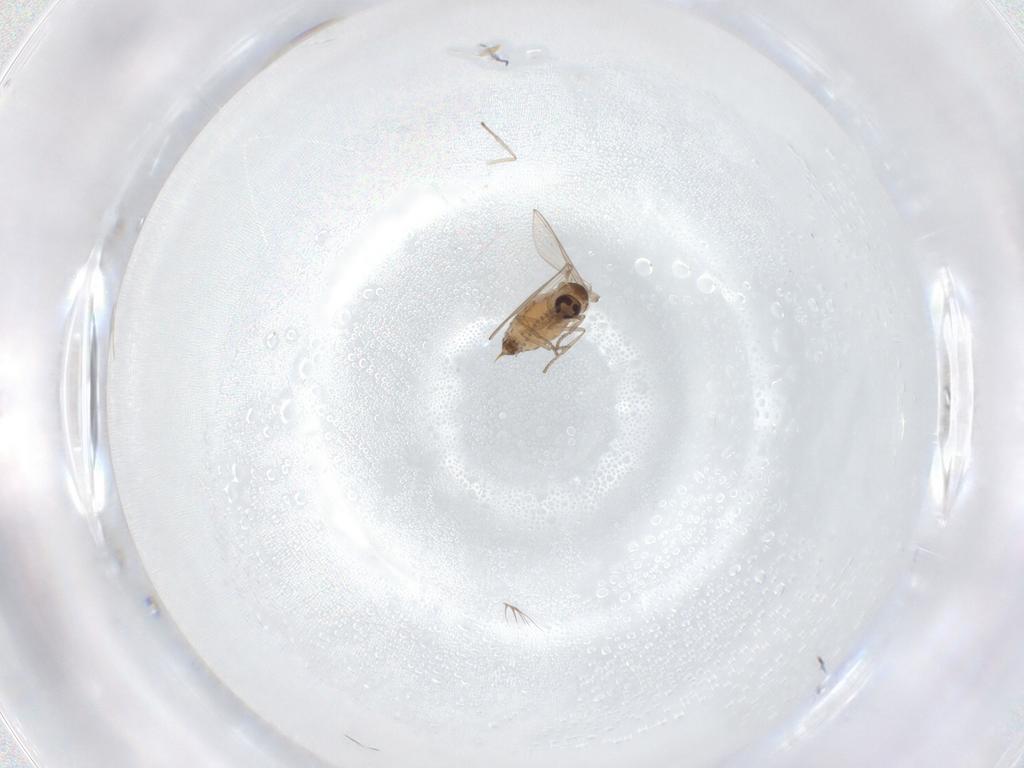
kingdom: Animalia
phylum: Arthropoda
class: Insecta
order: Diptera
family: Psychodidae
